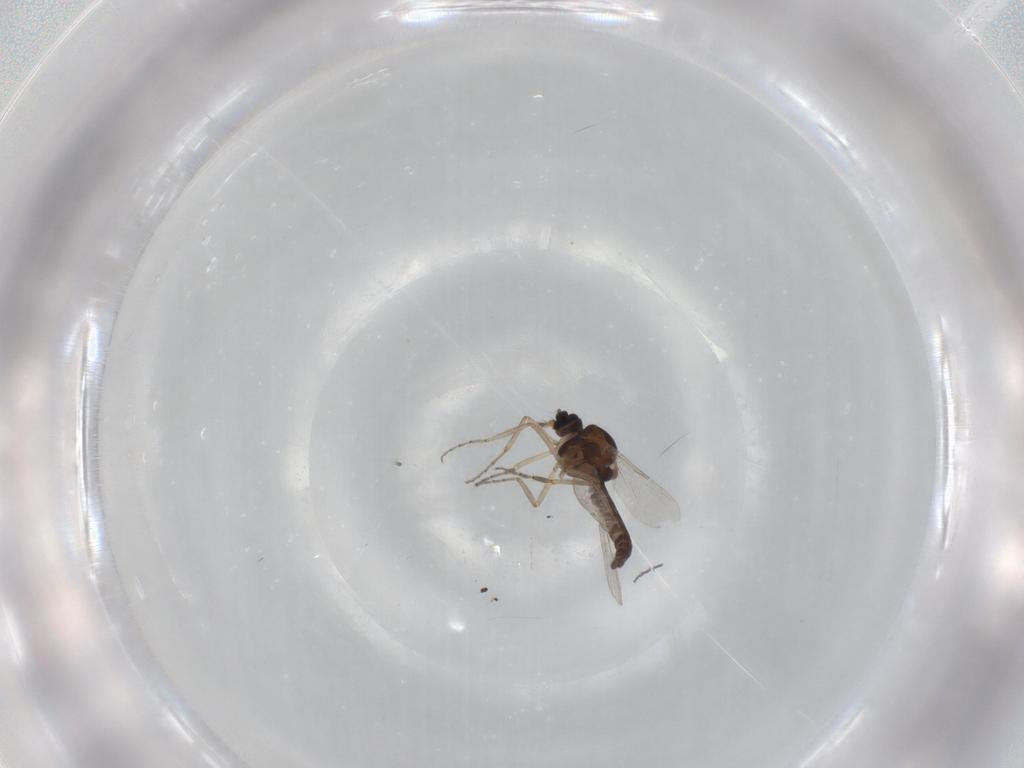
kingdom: Animalia
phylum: Arthropoda
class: Insecta
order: Diptera
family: Ceratopogonidae
